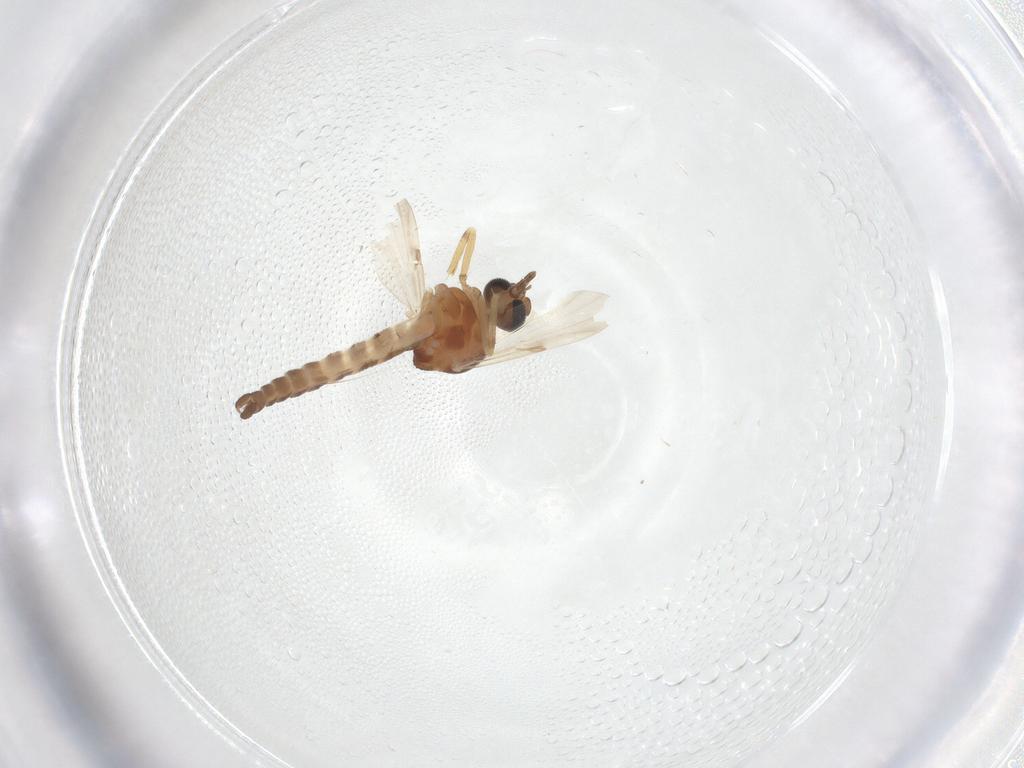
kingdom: Animalia
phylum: Arthropoda
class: Insecta
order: Diptera
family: Ceratopogonidae
